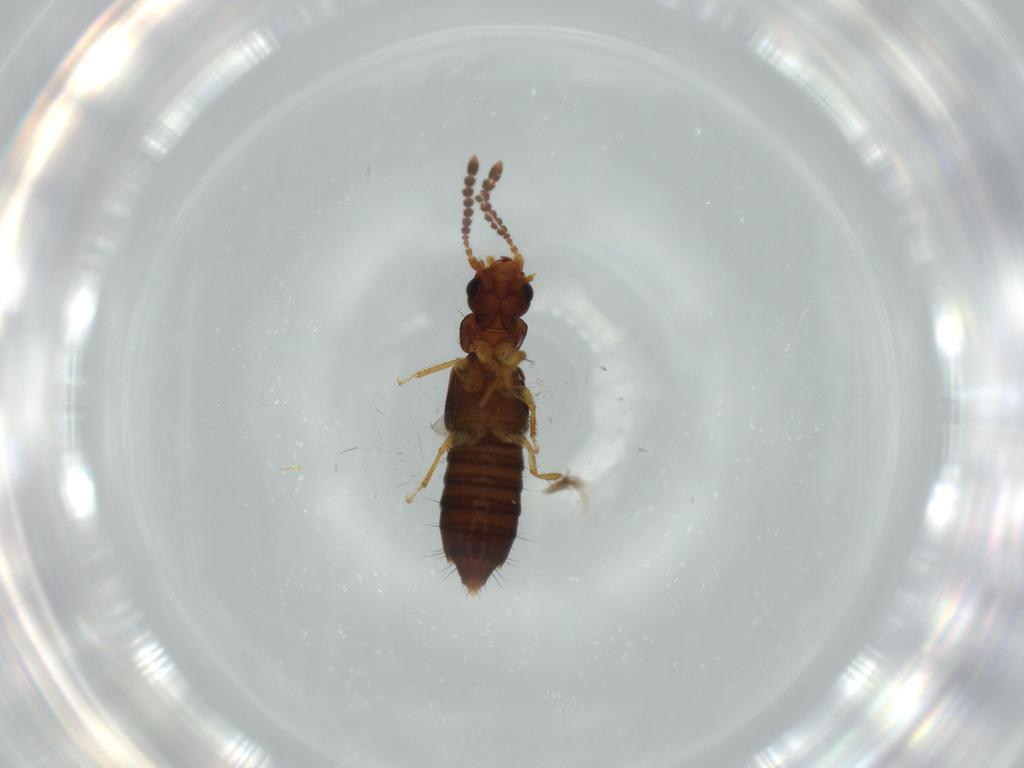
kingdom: Animalia
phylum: Arthropoda
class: Insecta
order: Coleoptera
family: Staphylinidae
